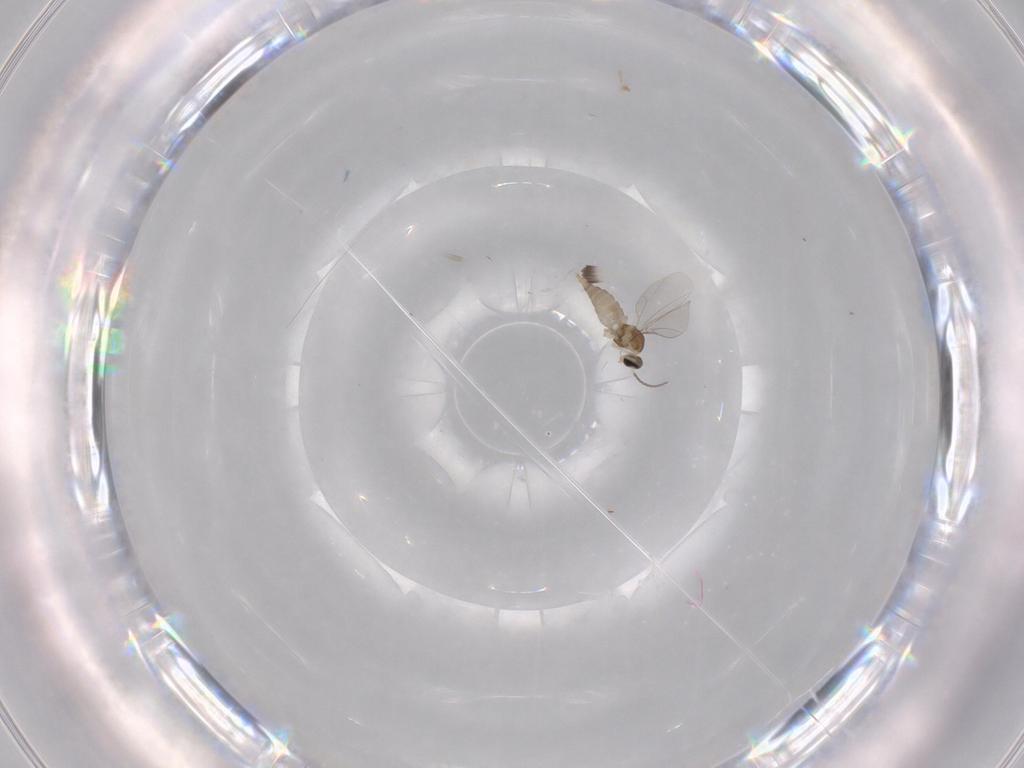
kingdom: Animalia
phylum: Arthropoda
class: Insecta
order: Diptera
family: Cecidomyiidae
